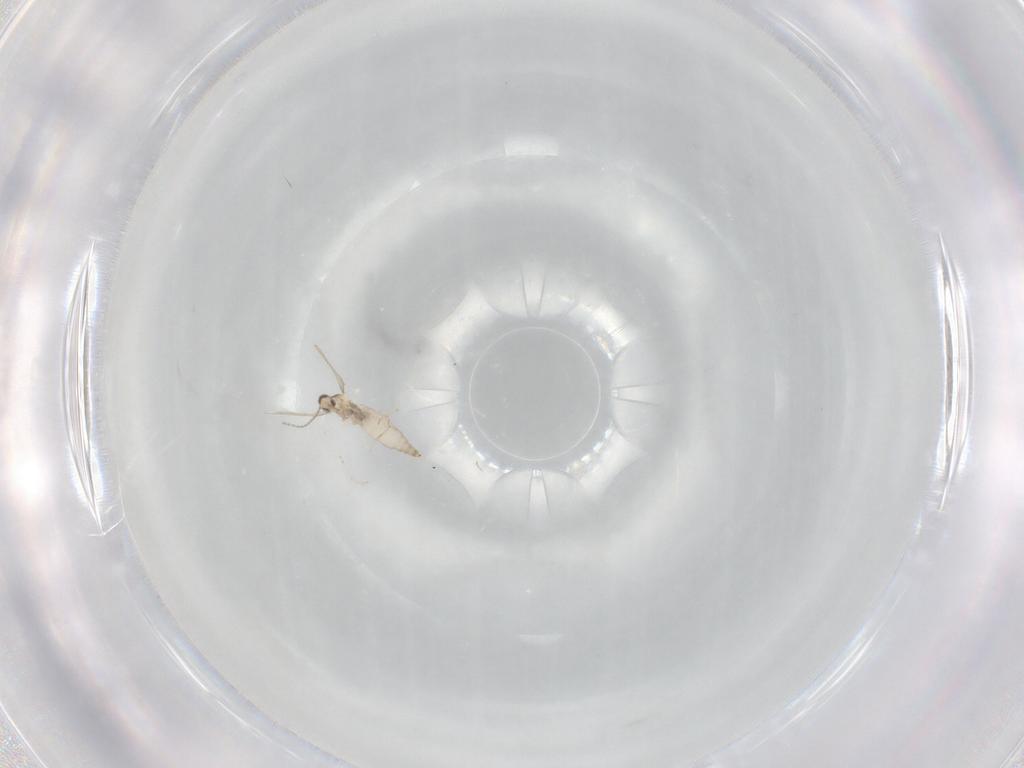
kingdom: Animalia
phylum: Arthropoda
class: Insecta
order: Diptera
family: Cecidomyiidae
